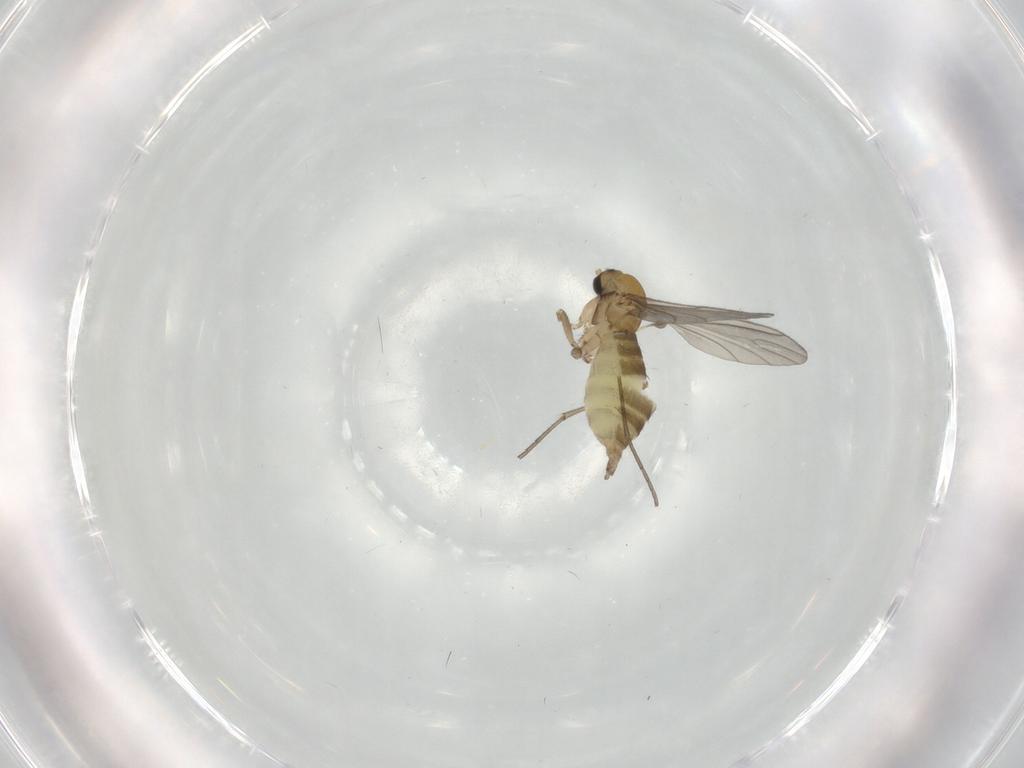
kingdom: Animalia
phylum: Arthropoda
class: Insecta
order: Diptera
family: Sciaridae
